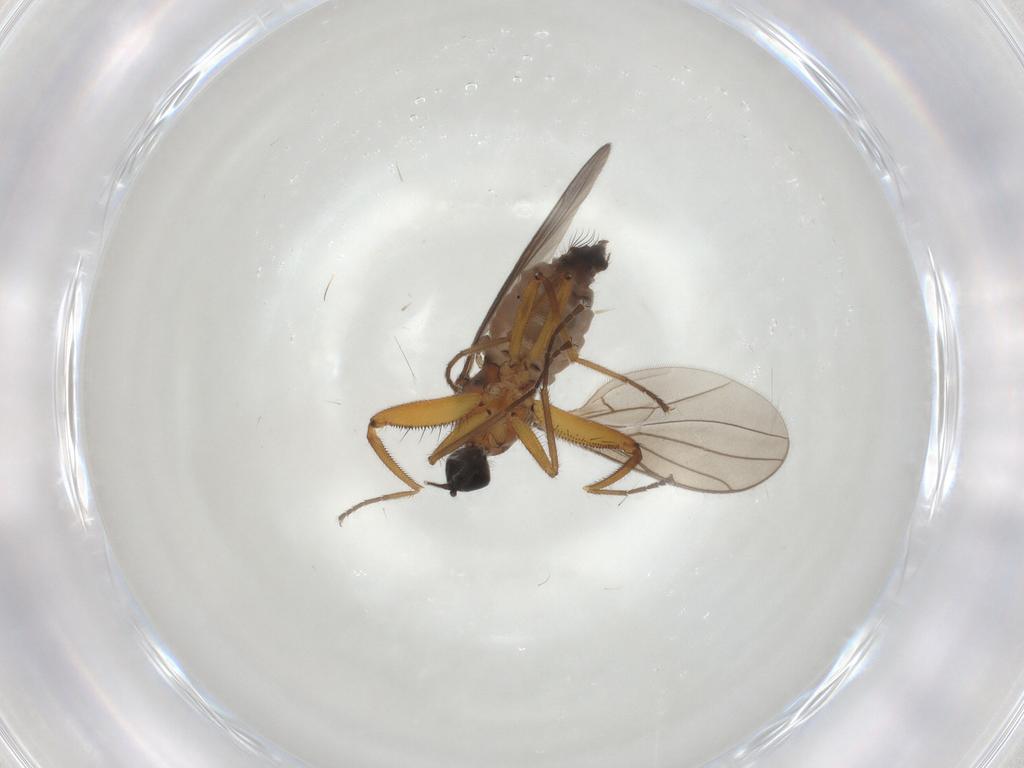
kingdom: Animalia
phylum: Arthropoda
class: Insecta
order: Diptera
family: Hybotidae
